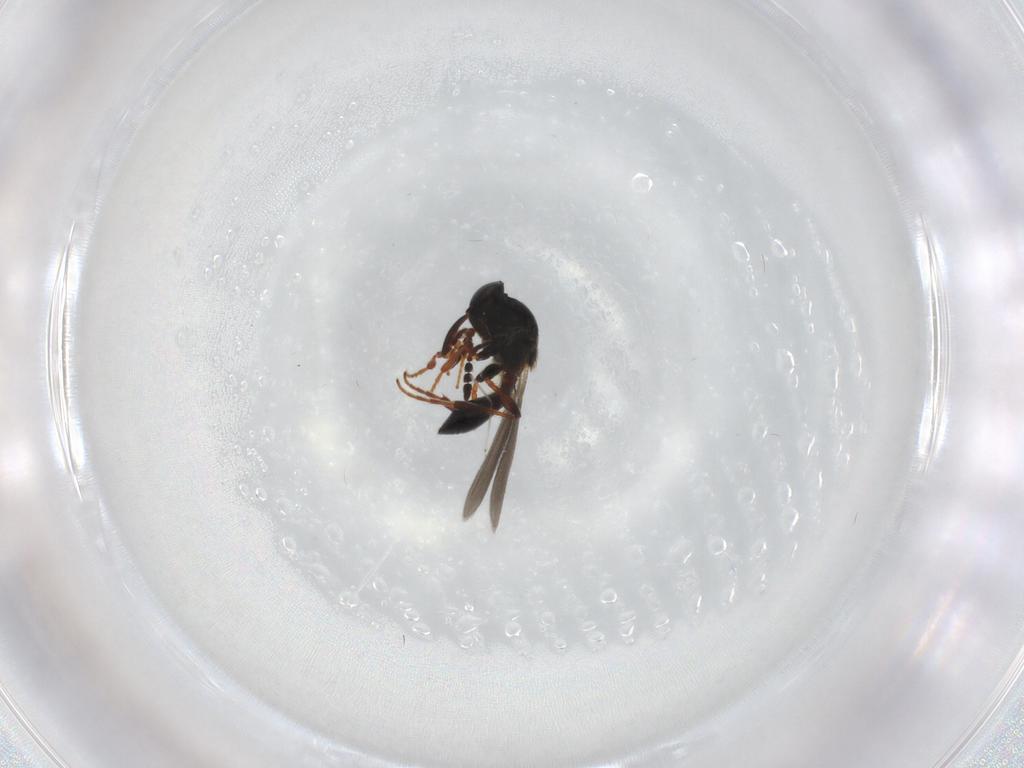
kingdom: Animalia
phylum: Arthropoda
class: Insecta
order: Hymenoptera
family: Platygastridae
